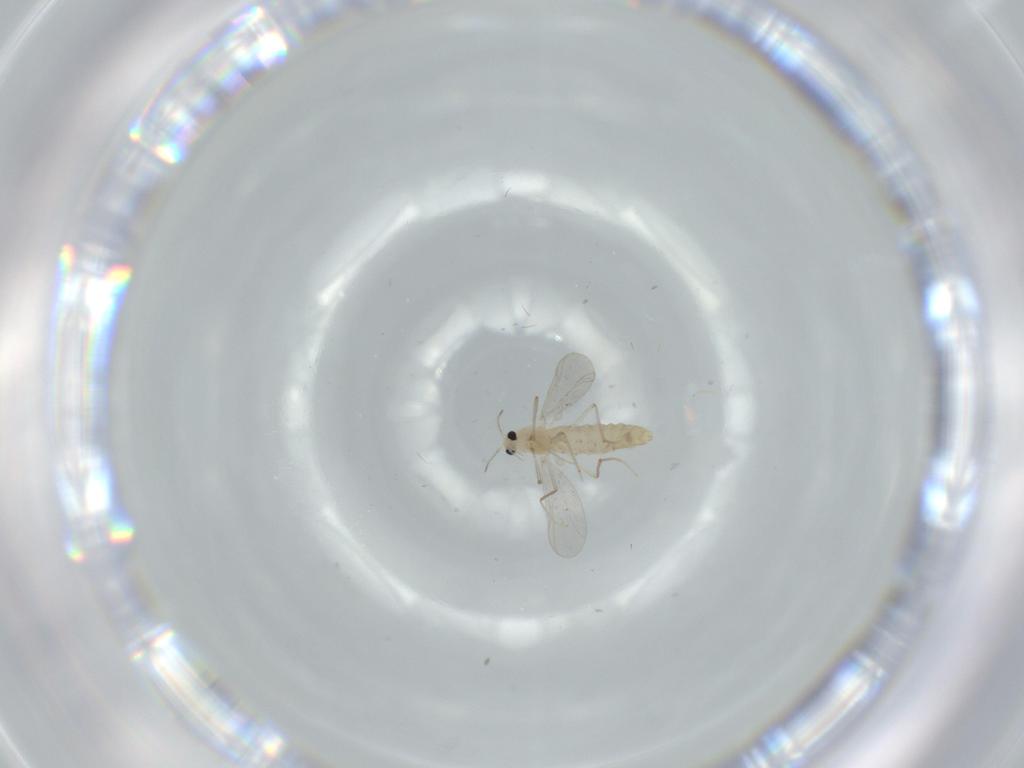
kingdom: Animalia
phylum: Arthropoda
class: Insecta
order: Diptera
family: Chironomidae
